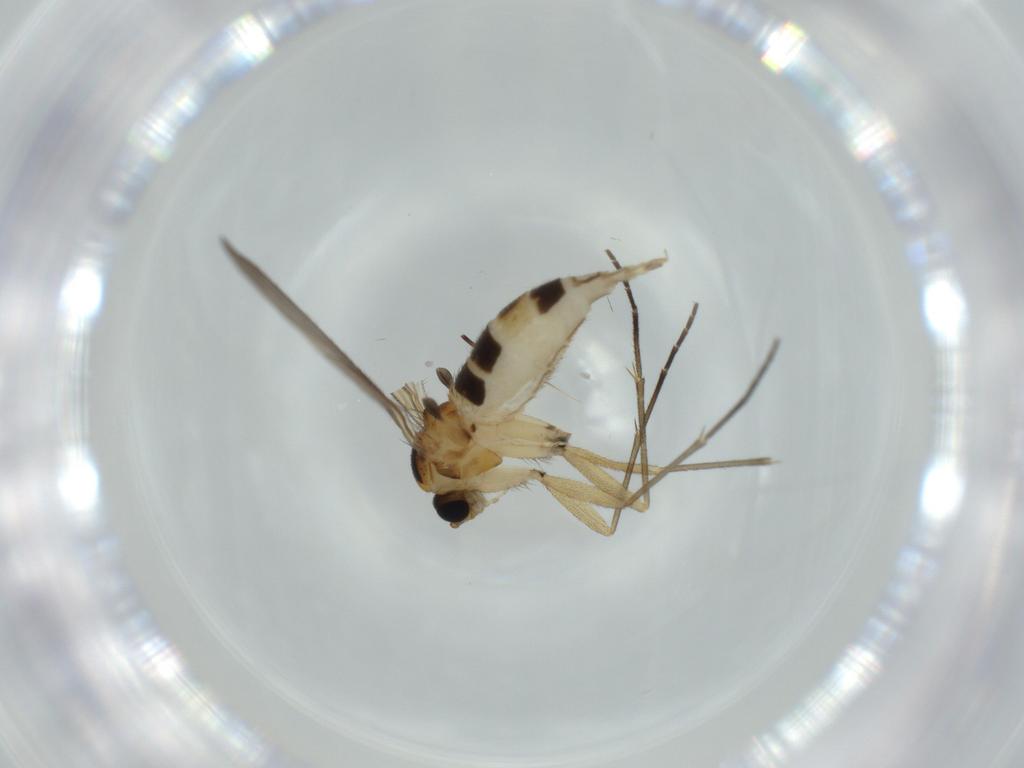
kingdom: Animalia
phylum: Arthropoda
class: Insecta
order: Diptera
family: Sciaridae
